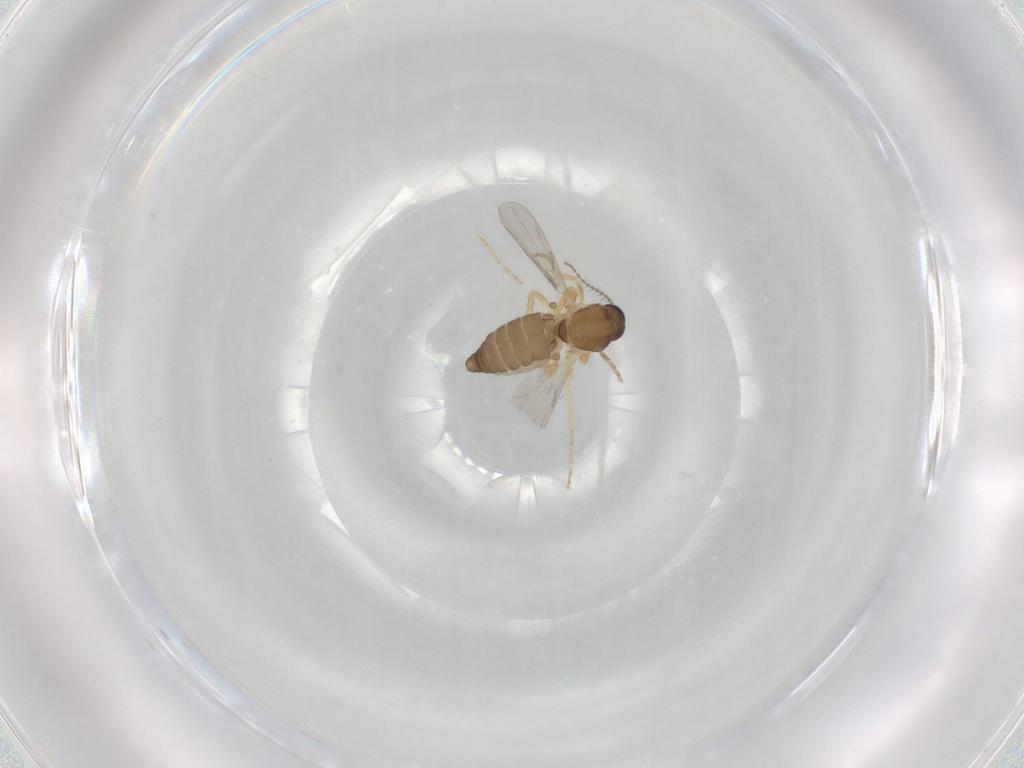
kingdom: Animalia
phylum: Arthropoda
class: Insecta
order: Diptera
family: Ceratopogonidae
